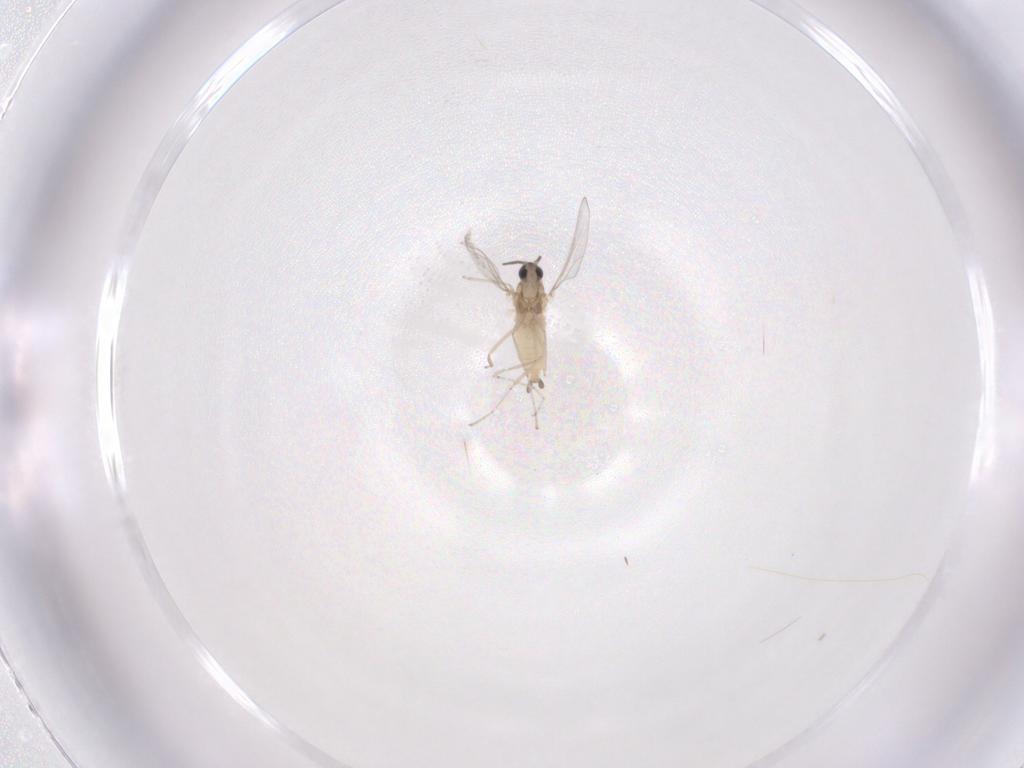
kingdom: Animalia
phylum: Arthropoda
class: Insecta
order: Diptera
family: Cecidomyiidae
